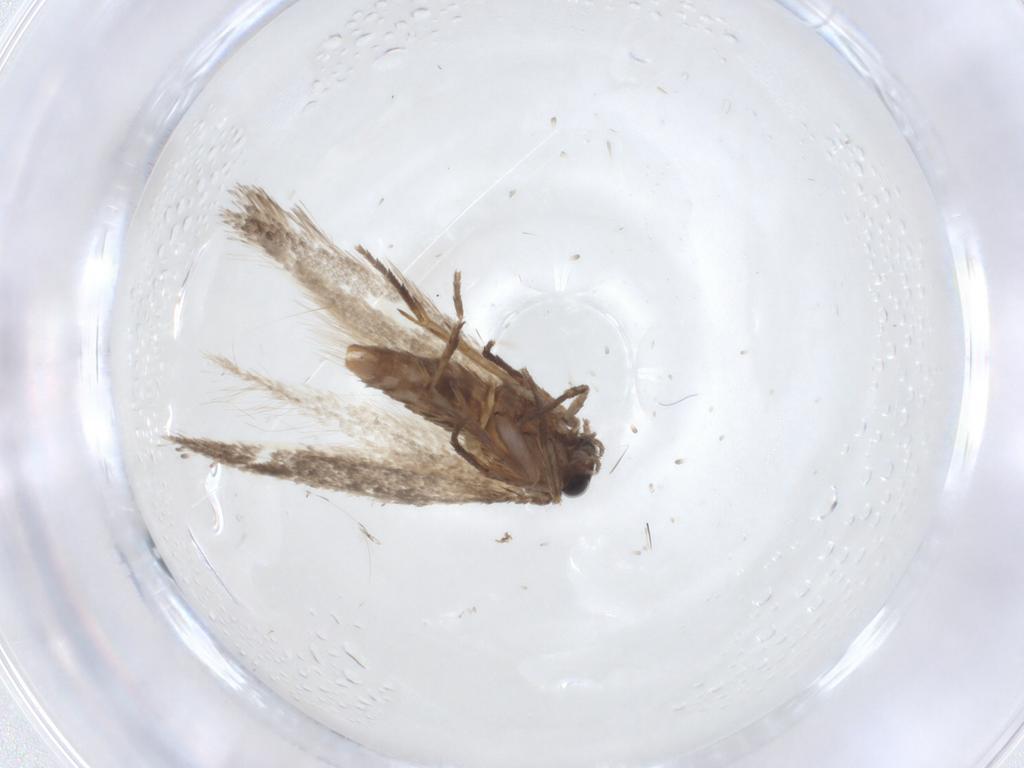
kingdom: Animalia
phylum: Arthropoda
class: Insecta
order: Lepidoptera
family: Nepticulidae
